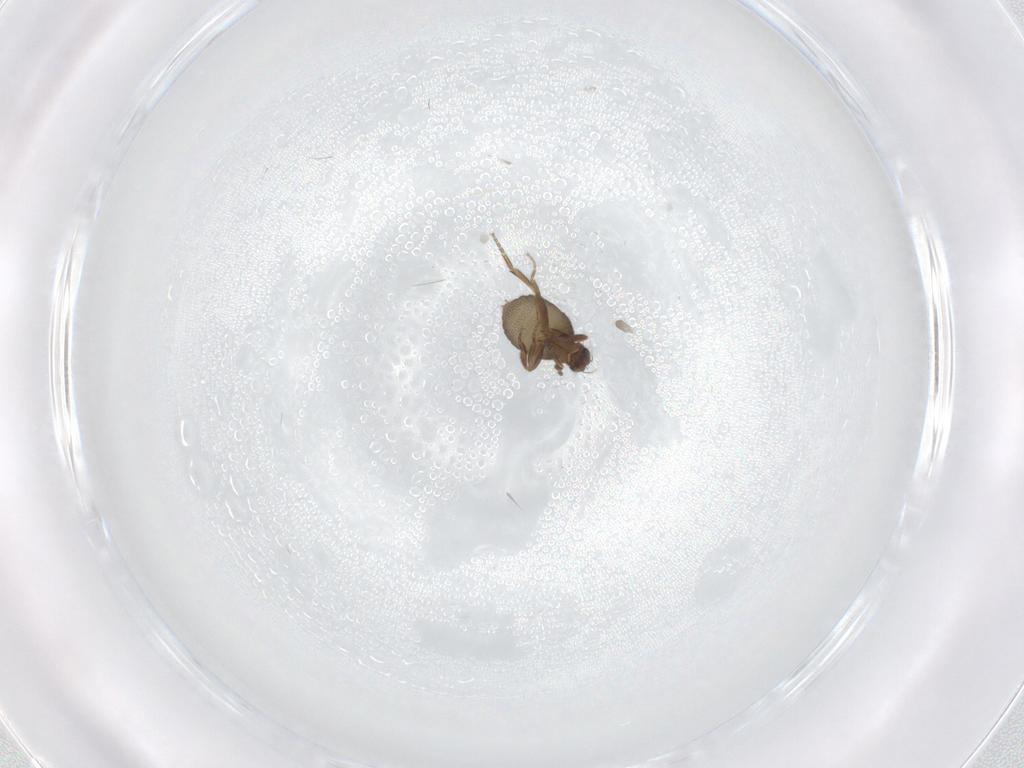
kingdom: Animalia
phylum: Arthropoda
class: Insecta
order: Diptera
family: Phoridae
